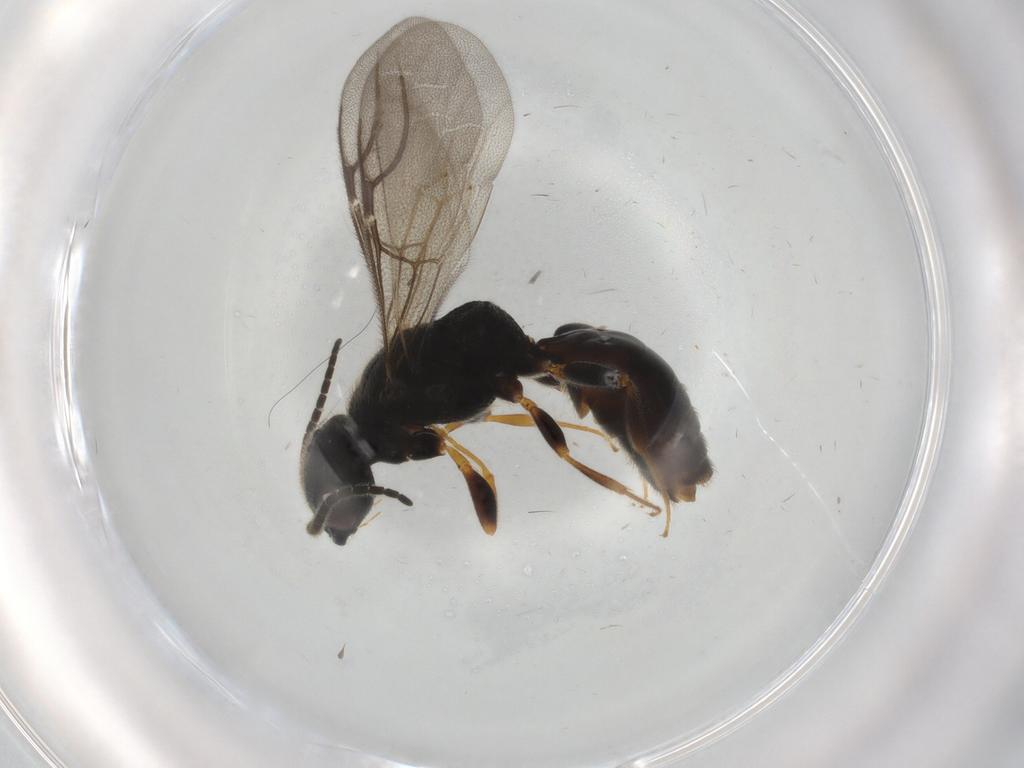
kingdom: Animalia
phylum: Arthropoda
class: Insecta
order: Hymenoptera
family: Bethylidae
